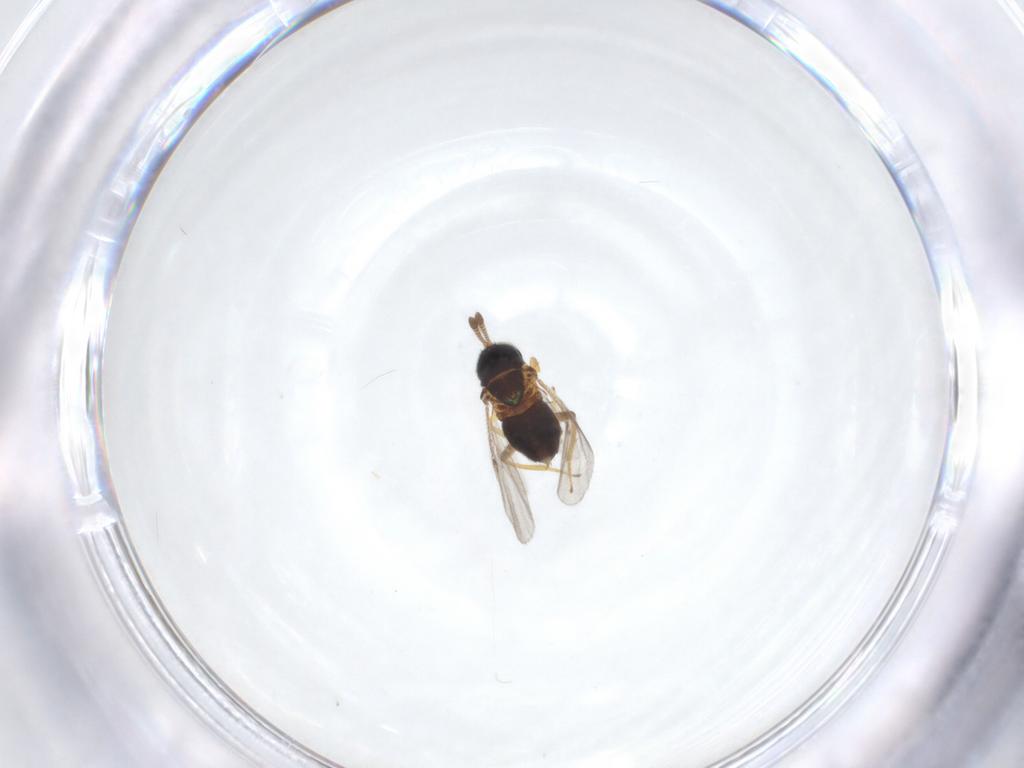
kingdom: Animalia
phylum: Arthropoda
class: Insecta
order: Hymenoptera
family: Encyrtidae
